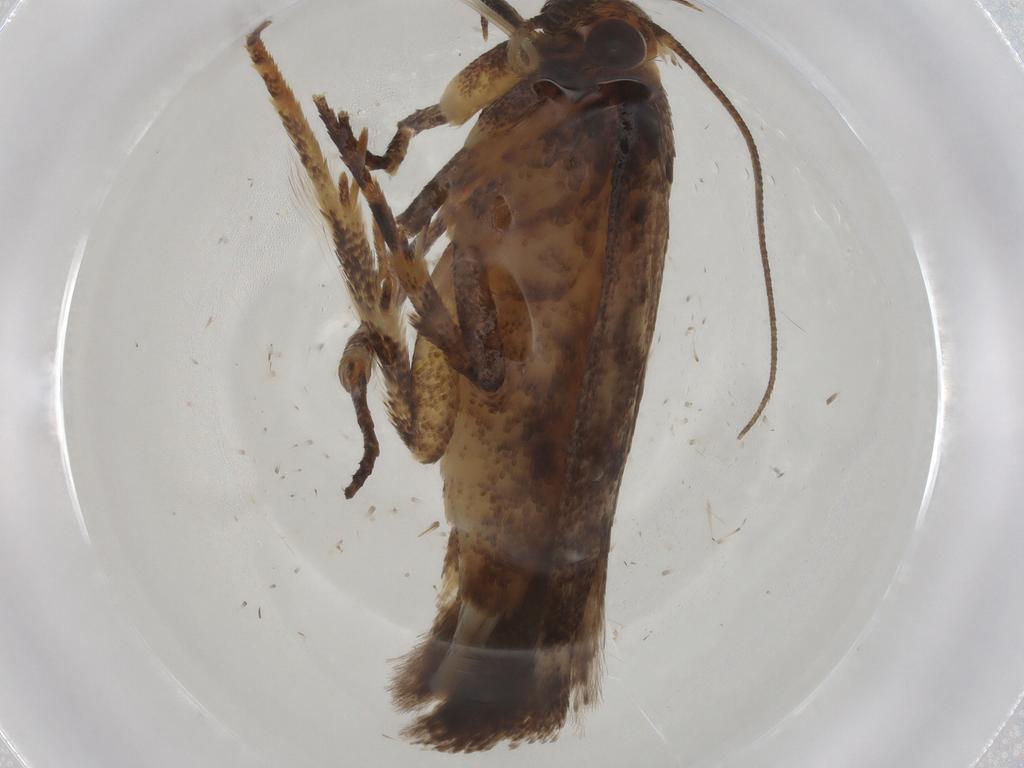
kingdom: Animalia
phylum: Arthropoda
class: Insecta
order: Lepidoptera
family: Gelechiidae
